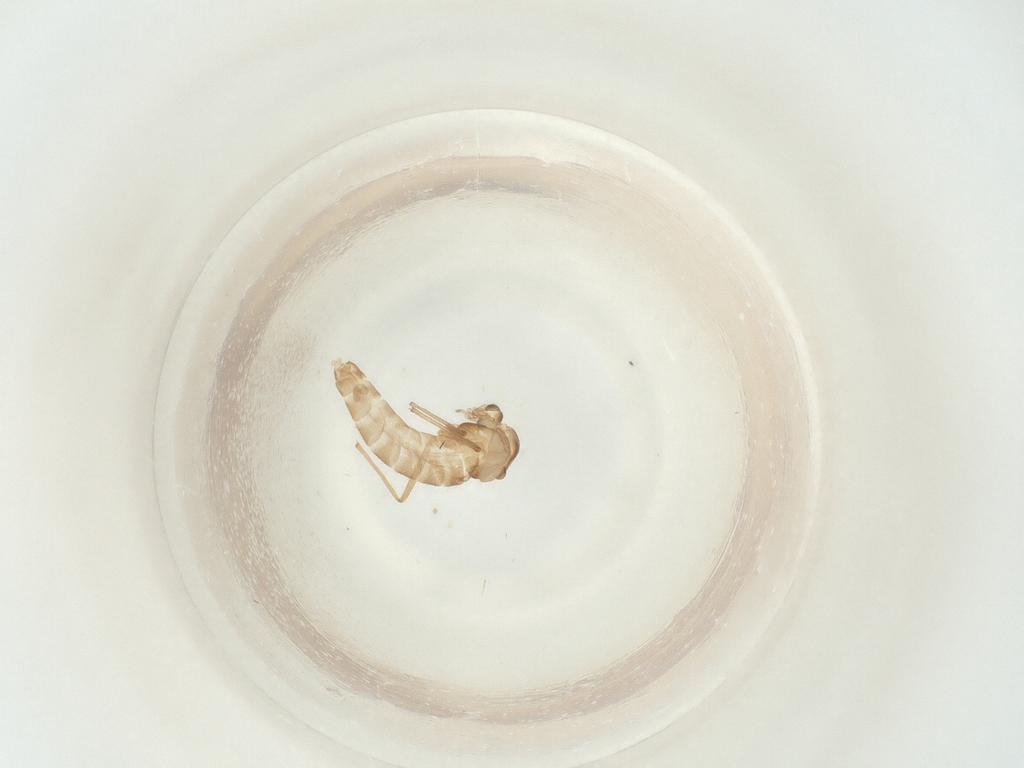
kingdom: Animalia
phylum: Arthropoda
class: Insecta
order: Diptera
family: Chironomidae
